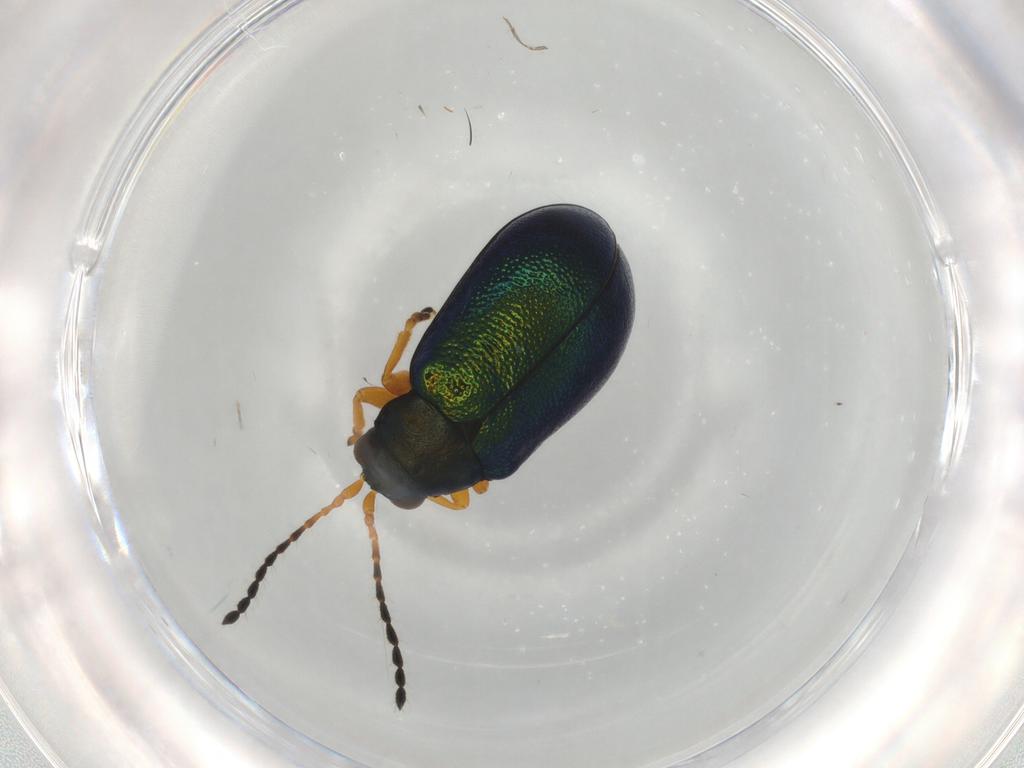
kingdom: Animalia
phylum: Arthropoda
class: Insecta
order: Coleoptera
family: Chrysomelidae
